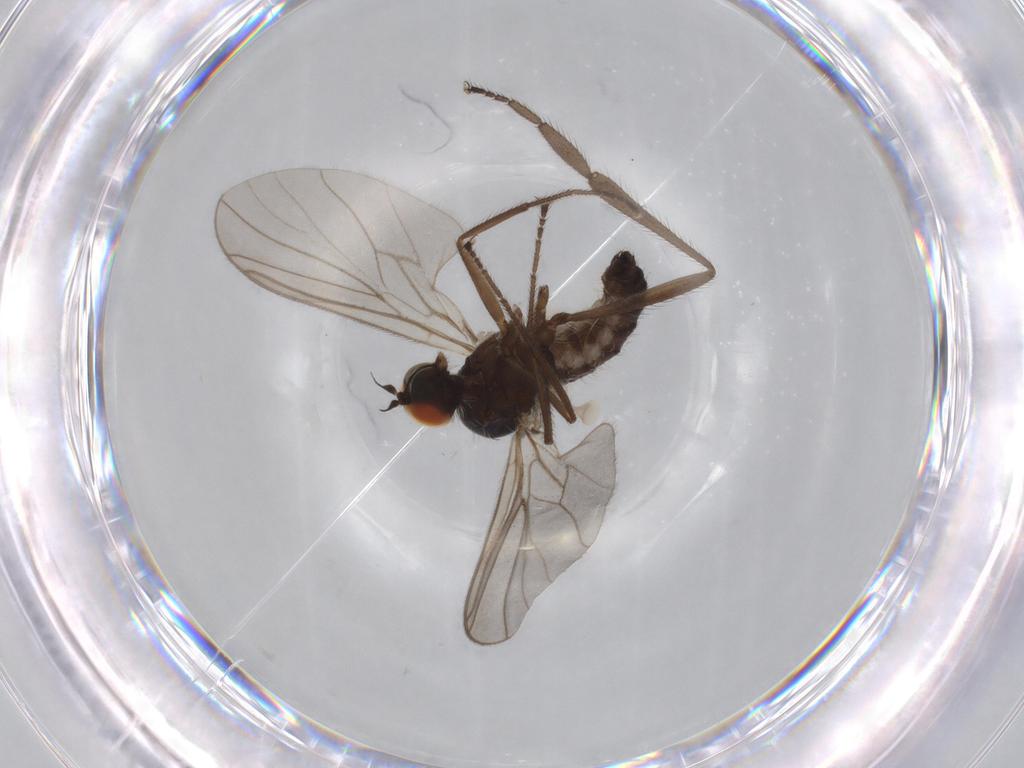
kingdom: Animalia
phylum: Arthropoda
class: Insecta
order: Diptera
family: Hybotidae
